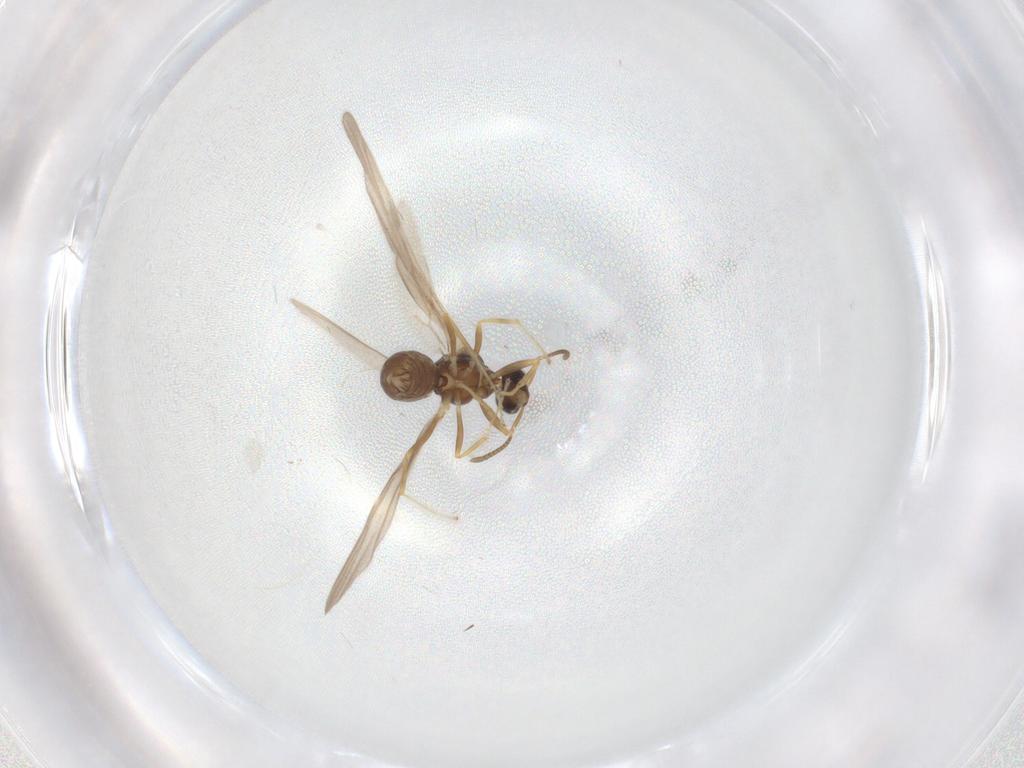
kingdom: Animalia
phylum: Arthropoda
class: Insecta
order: Hymenoptera
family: Formicidae
